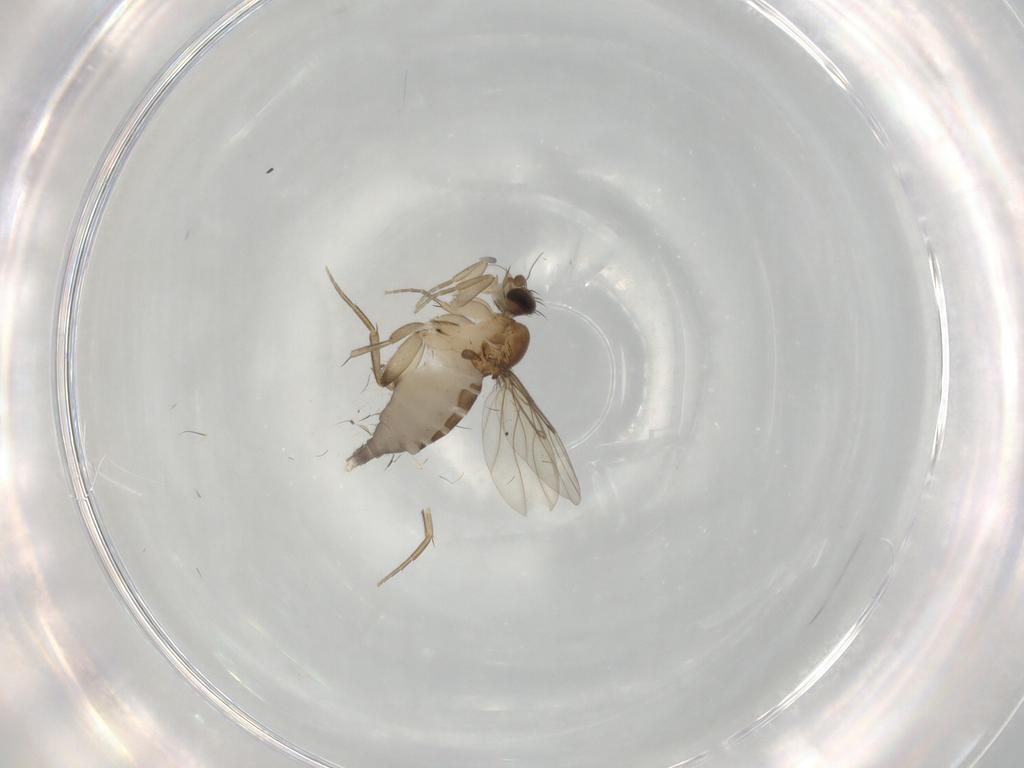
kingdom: Animalia
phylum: Arthropoda
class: Insecta
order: Diptera
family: Phoridae
